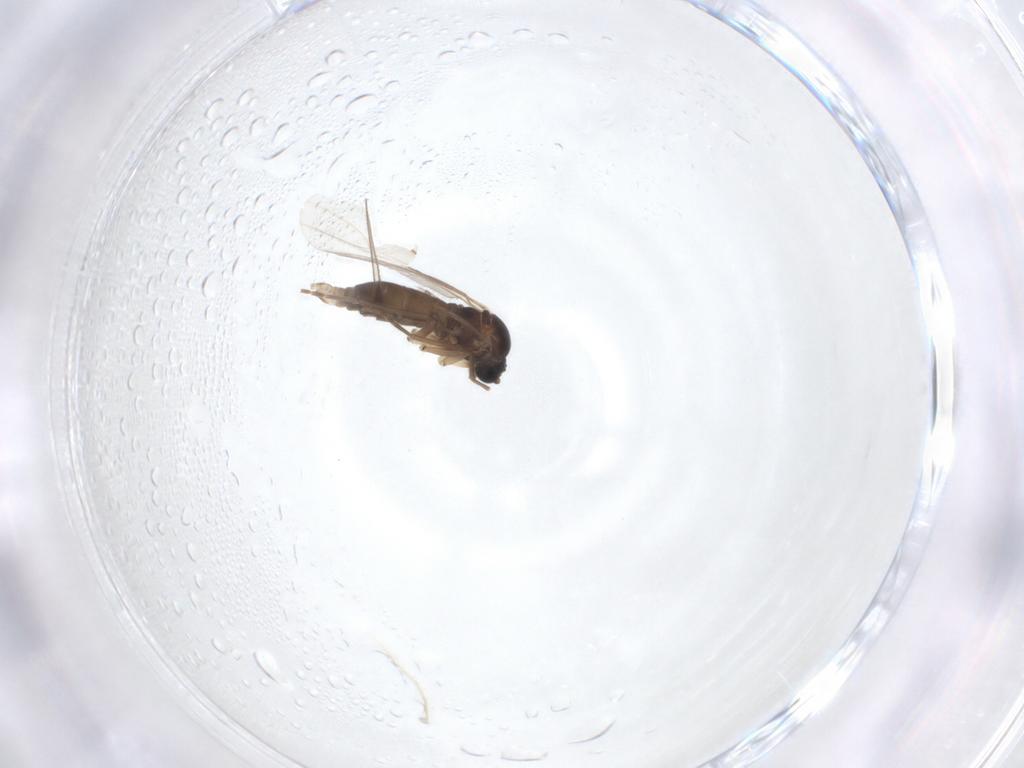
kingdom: Animalia
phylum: Arthropoda
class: Insecta
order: Diptera
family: Sciaridae
